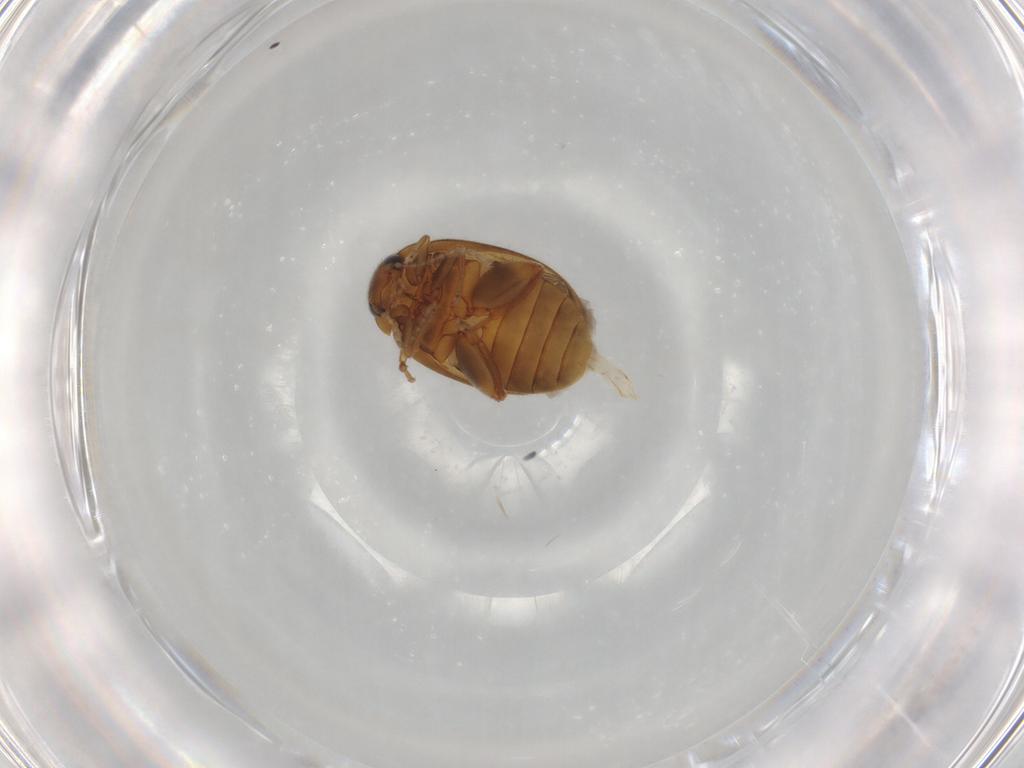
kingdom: Animalia
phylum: Arthropoda
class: Insecta
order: Coleoptera
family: Scirtidae
